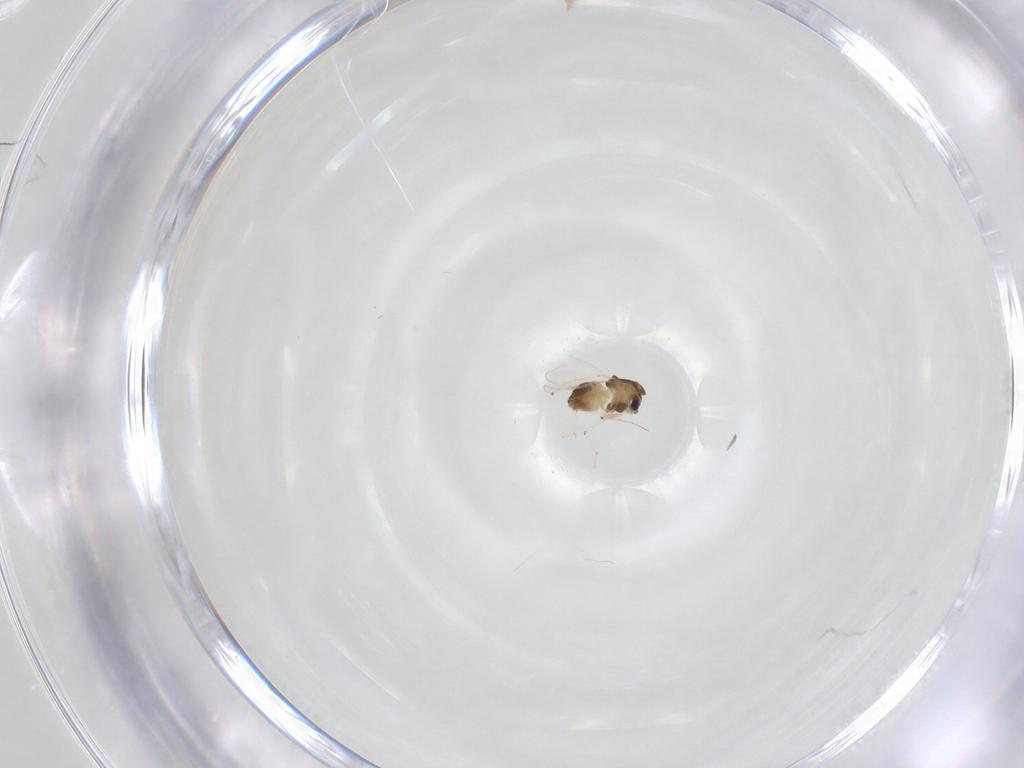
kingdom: Animalia
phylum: Arthropoda
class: Insecta
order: Diptera
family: Chironomidae
